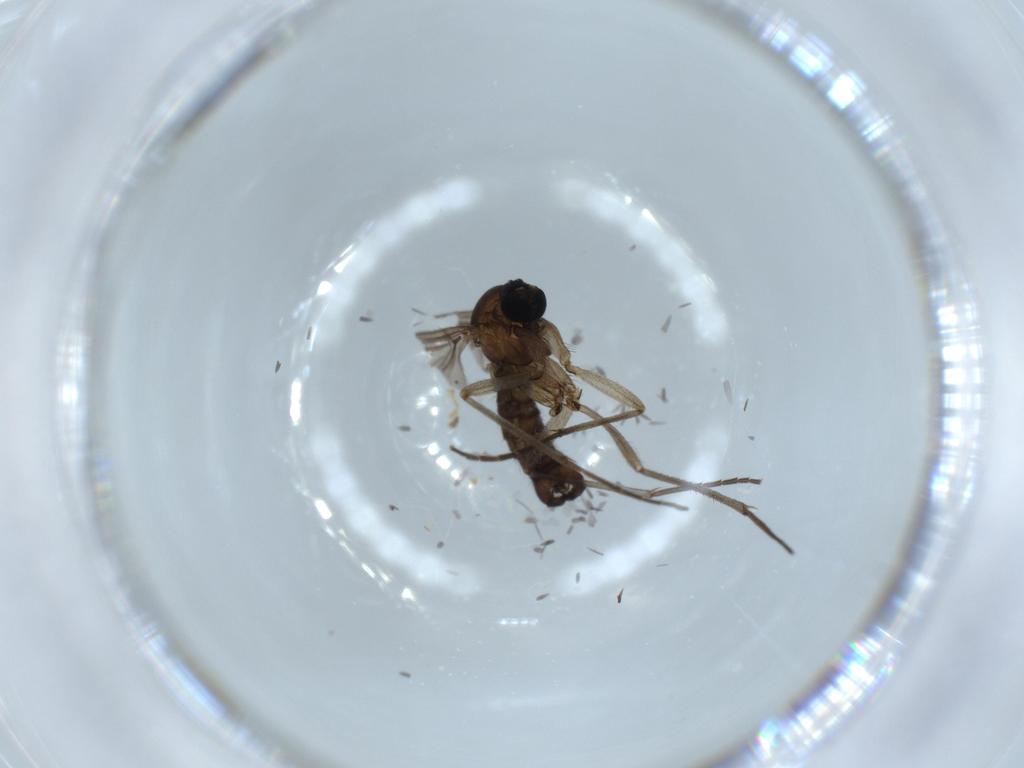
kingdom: Animalia
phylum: Arthropoda
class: Insecta
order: Diptera
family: Sciaridae
